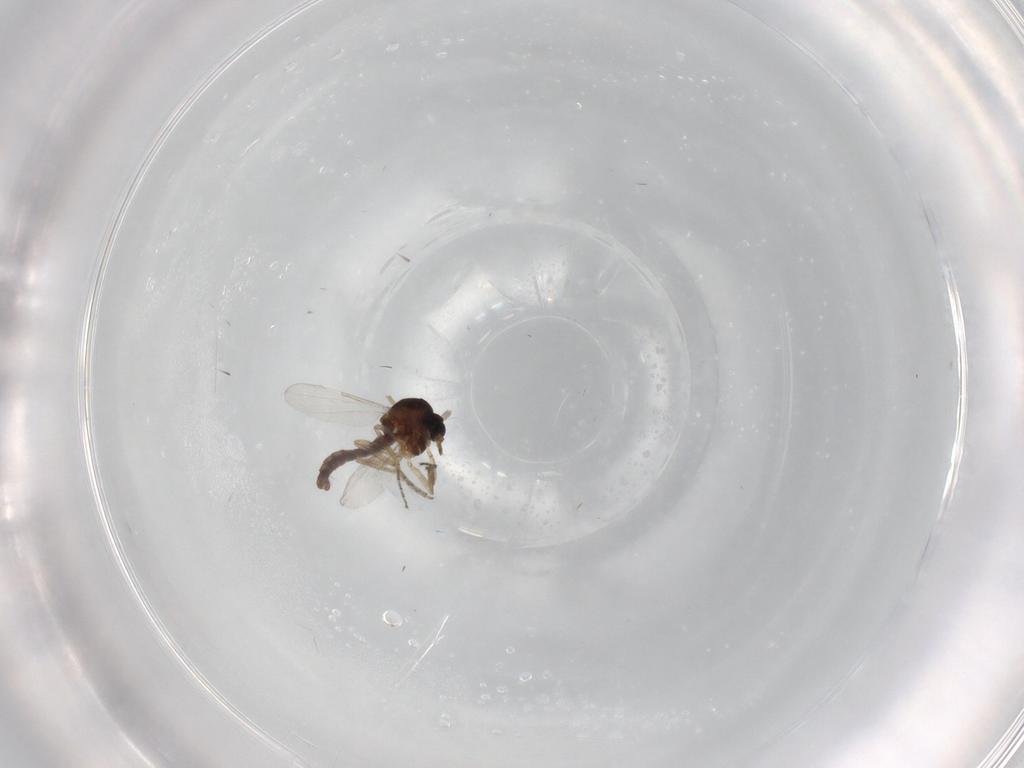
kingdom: Animalia
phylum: Arthropoda
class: Insecta
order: Diptera
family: Ceratopogonidae
